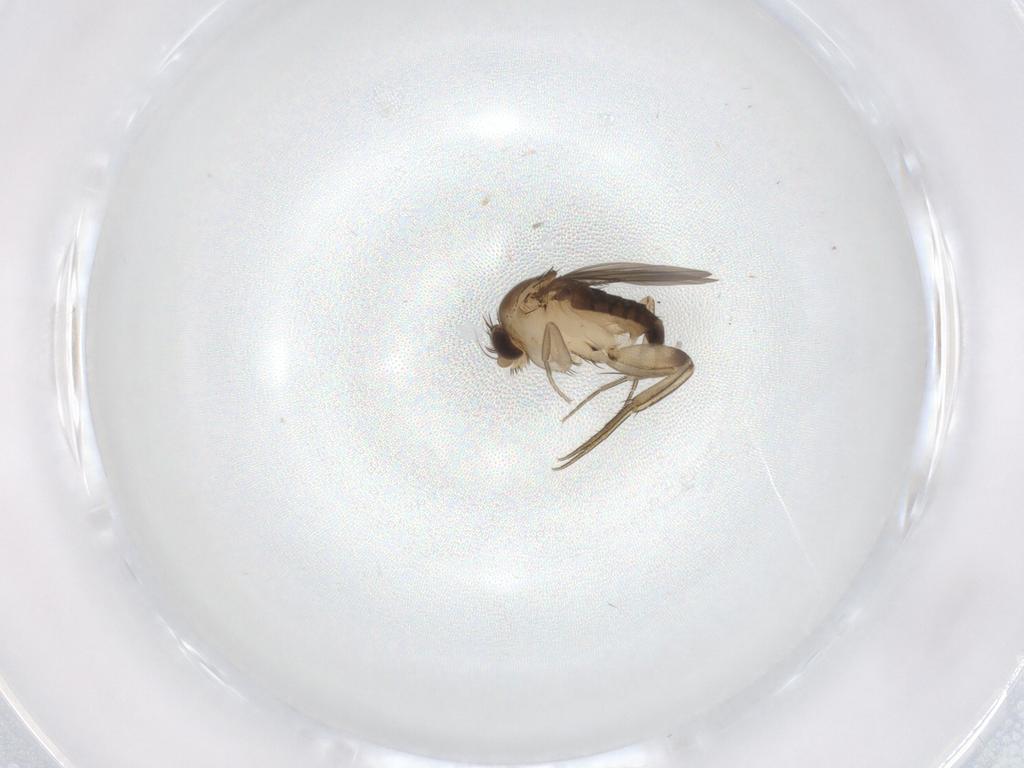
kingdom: Animalia
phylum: Arthropoda
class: Insecta
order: Diptera
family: Phoridae
